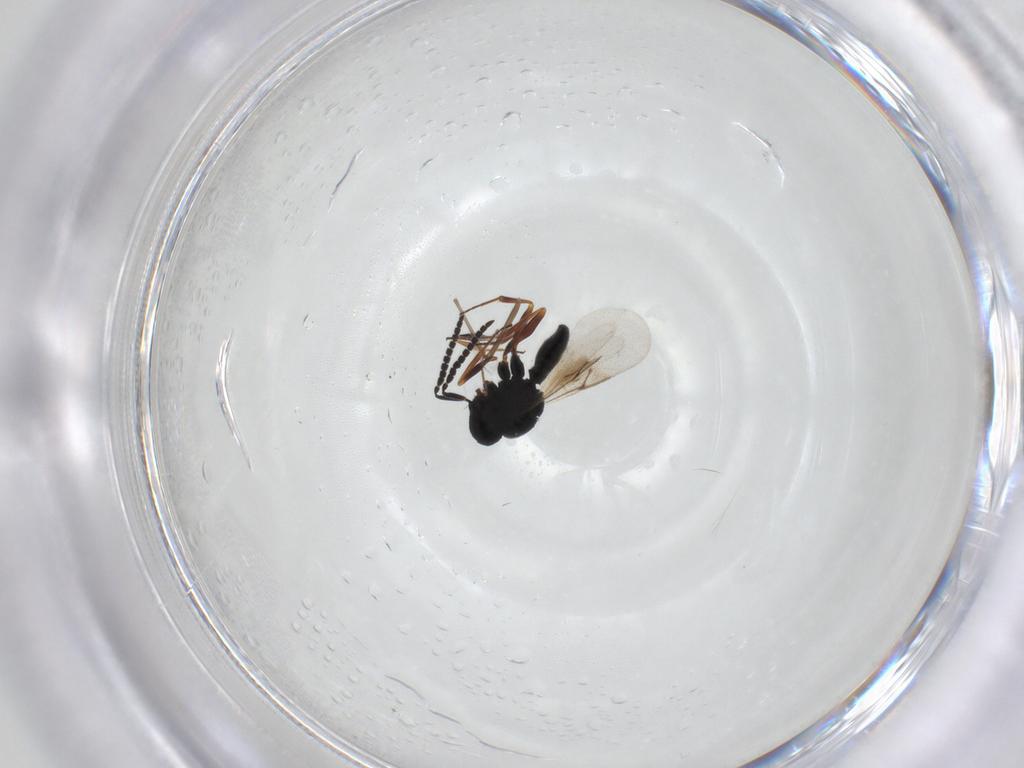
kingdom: Animalia
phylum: Arthropoda
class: Insecta
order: Hymenoptera
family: Scelionidae
